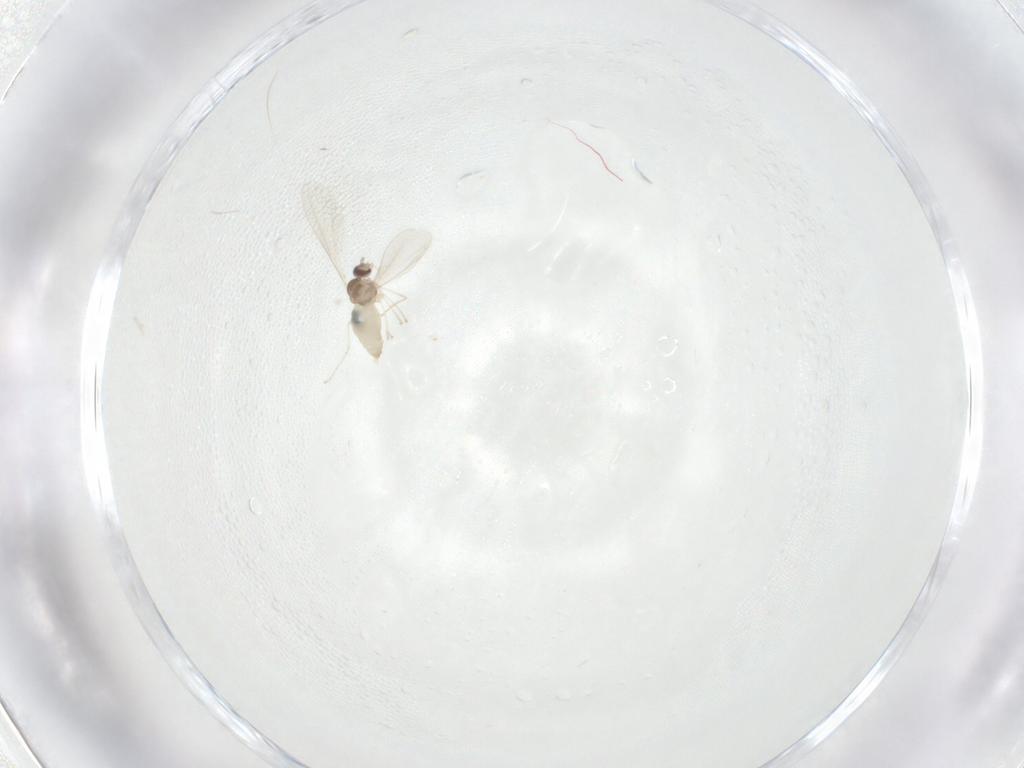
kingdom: Animalia
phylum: Arthropoda
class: Insecta
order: Diptera
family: Cecidomyiidae
